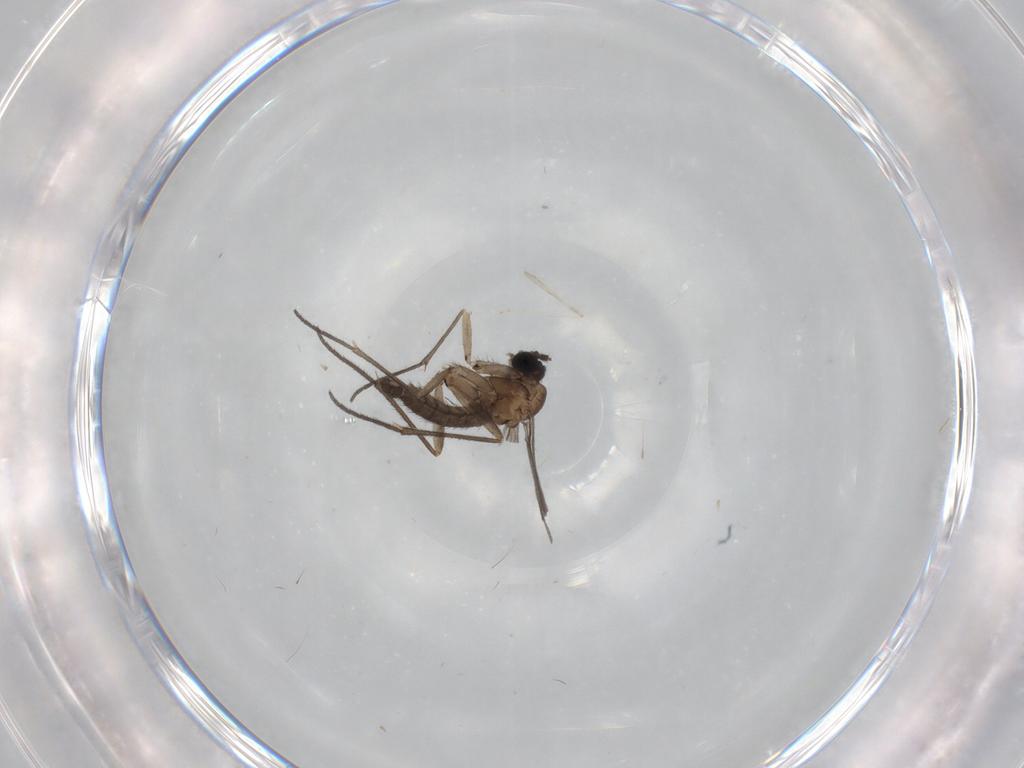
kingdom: Animalia
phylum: Arthropoda
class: Insecta
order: Diptera
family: Sciaridae
